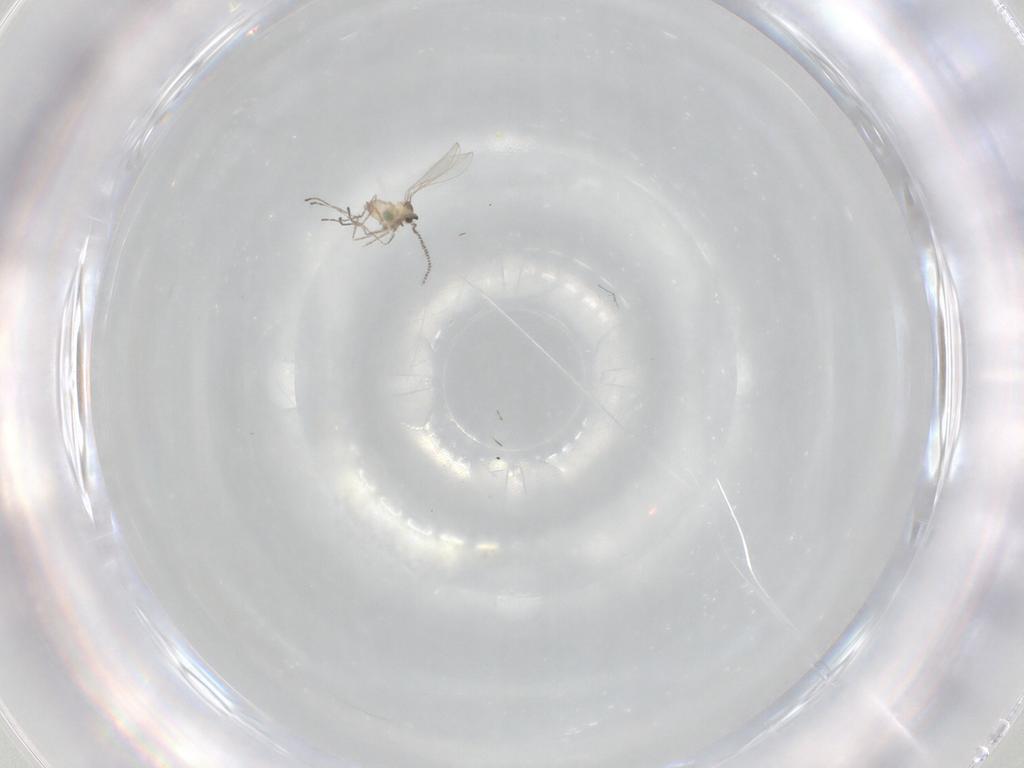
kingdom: Animalia
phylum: Arthropoda
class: Insecta
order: Diptera
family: Cecidomyiidae
